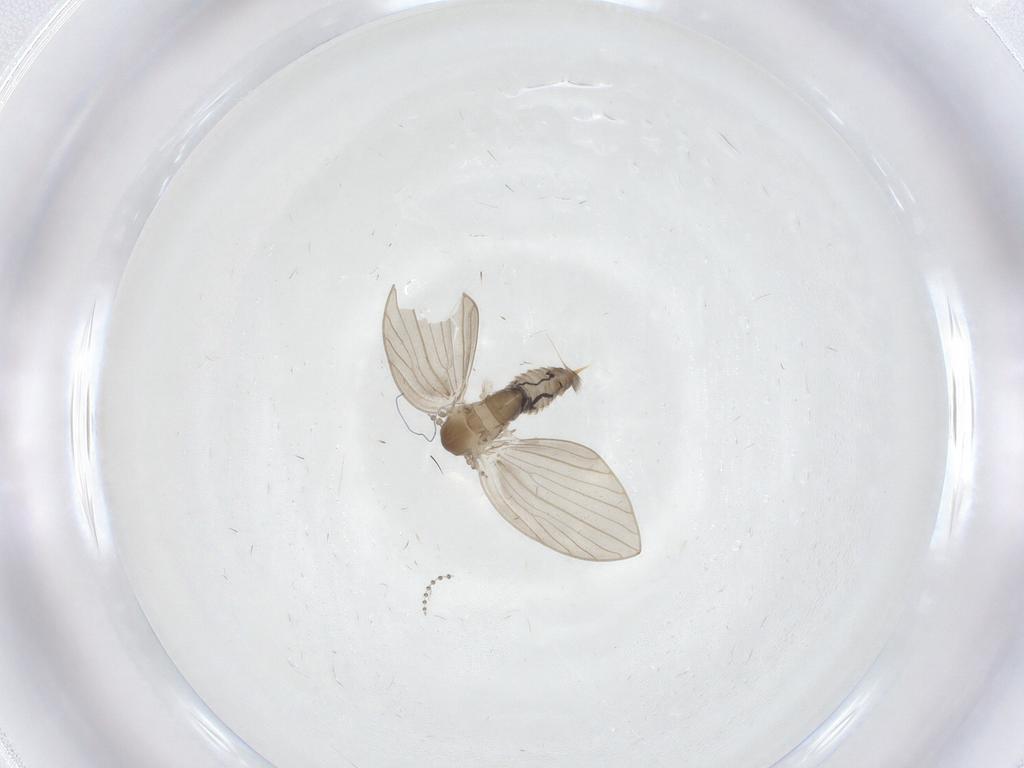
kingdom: Animalia
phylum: Arthropoda
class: Insecta
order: Diptera
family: Psychodidae
